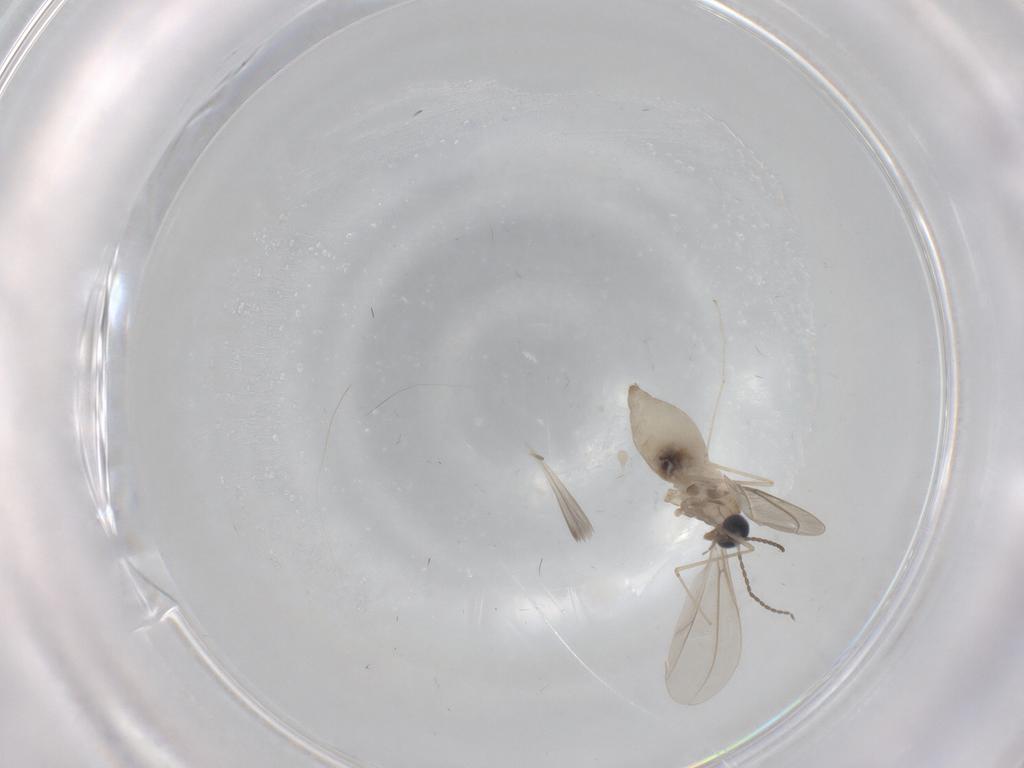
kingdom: Animalia
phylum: Arthropoda
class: Insecta
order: Diptera
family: Cecidomyiidae
